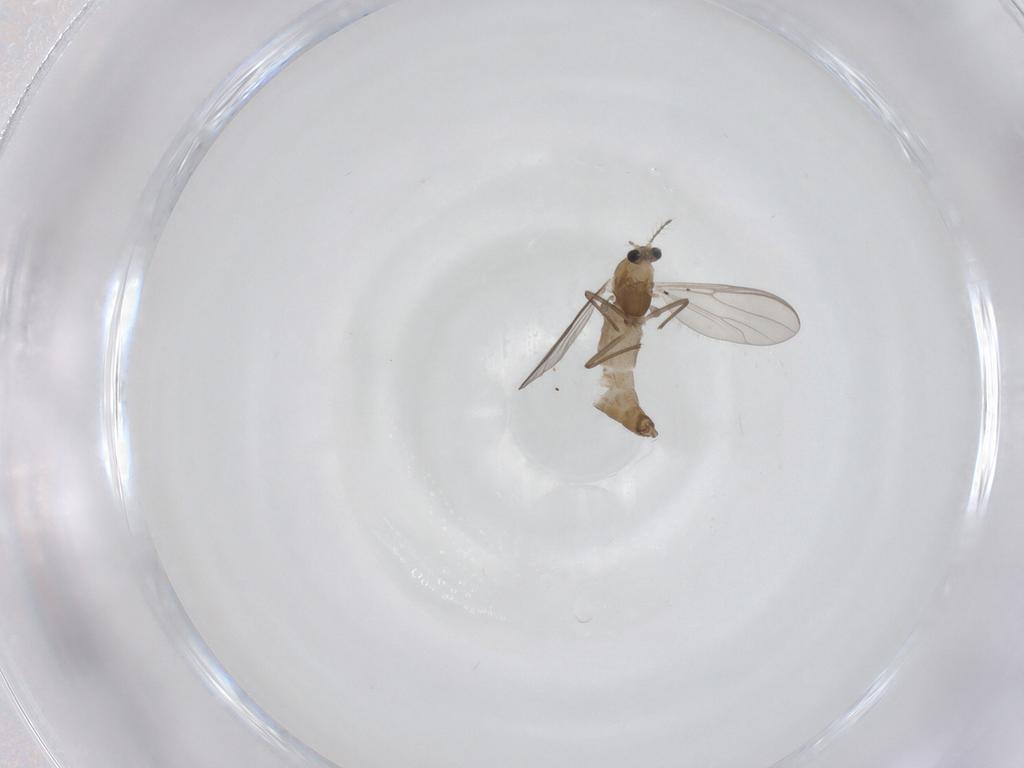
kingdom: Animalia
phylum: Arthropoda
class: Insecta
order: Diptera
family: Chironomidae
